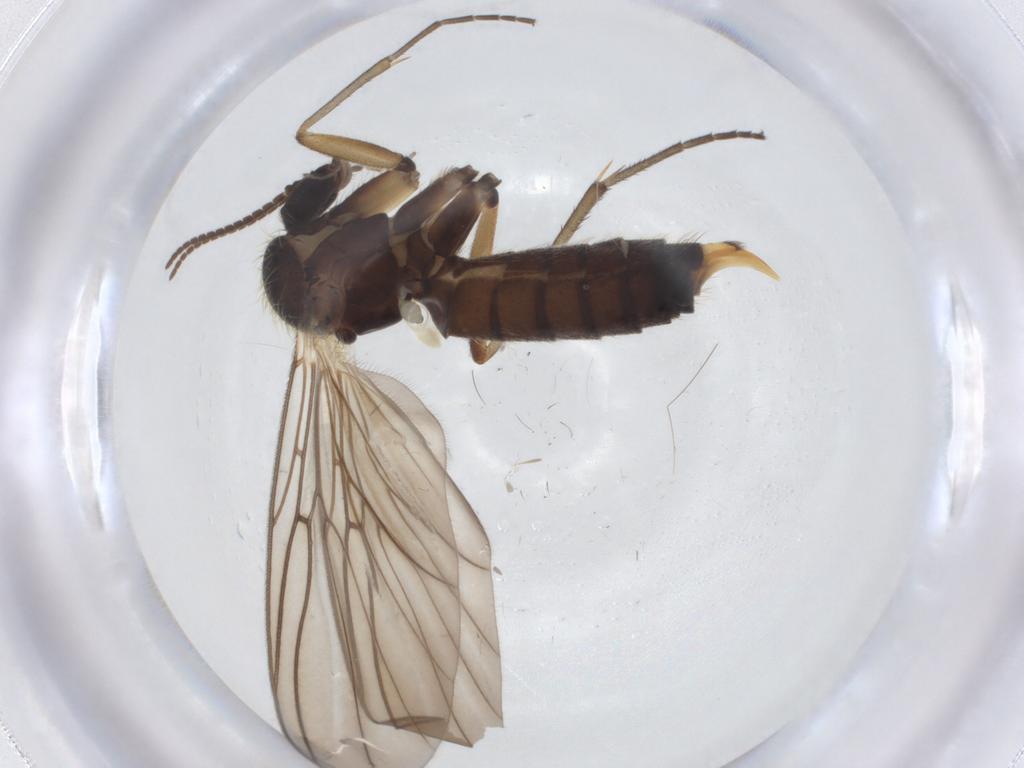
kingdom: Animalia
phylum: Arthropoda
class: Insecta
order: Diptera
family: Mycetophilidae
